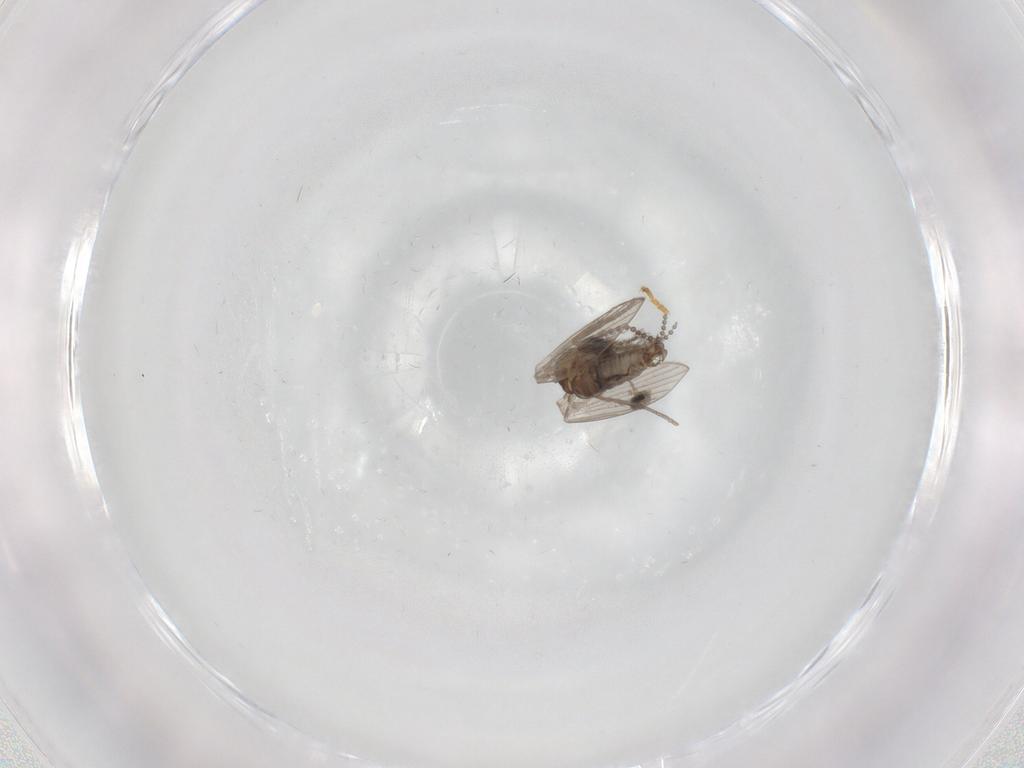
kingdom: Animalia
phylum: Arthropoda
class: Insecta
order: Diptera
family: Psychodidae
